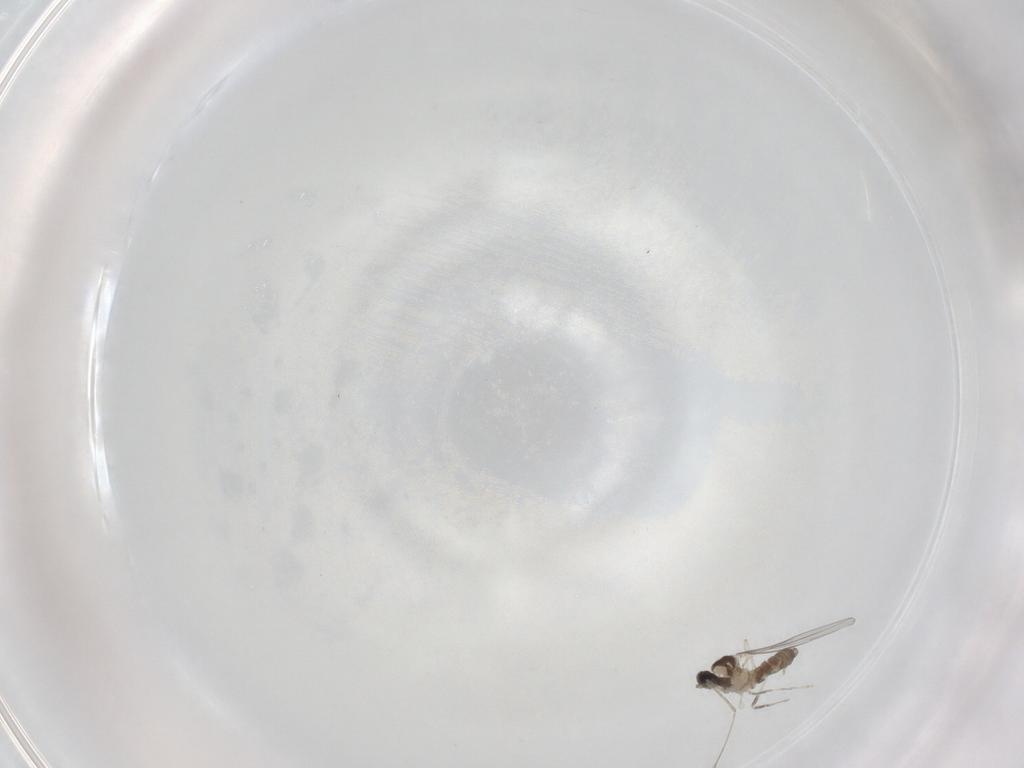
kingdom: Animalia
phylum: Arthropoda
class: Insecta
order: Diptera
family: Cecidomyiidae
